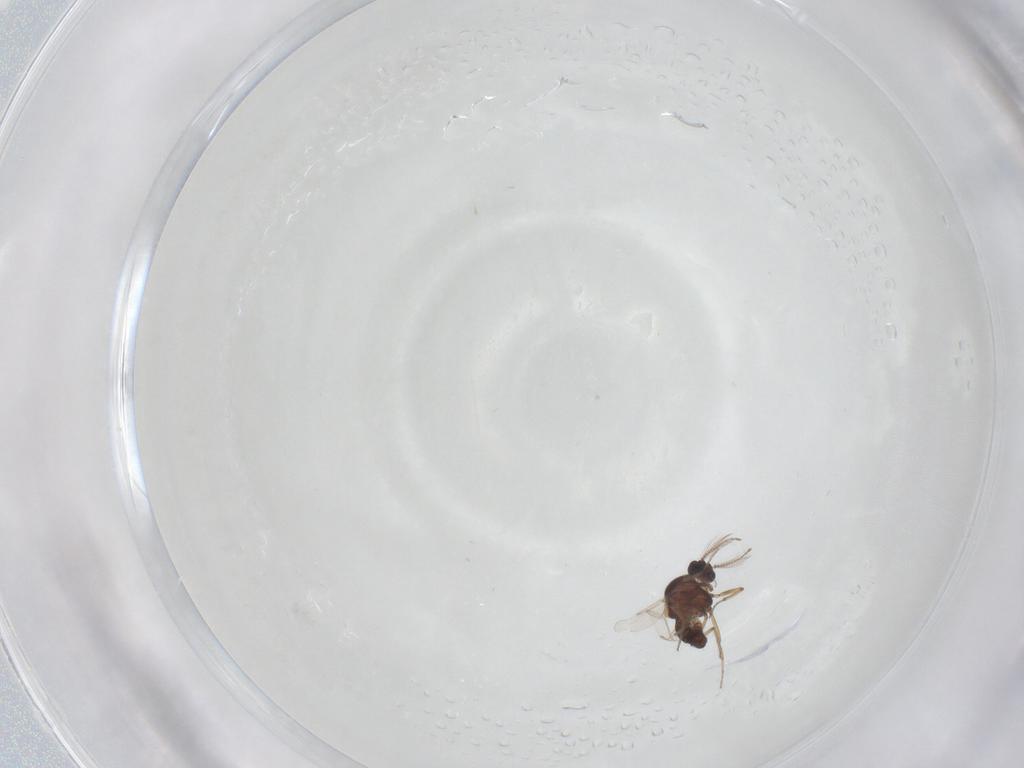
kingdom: Animalia
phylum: Arthropoda
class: Insecta
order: Diptera
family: Ceratopogonidae
